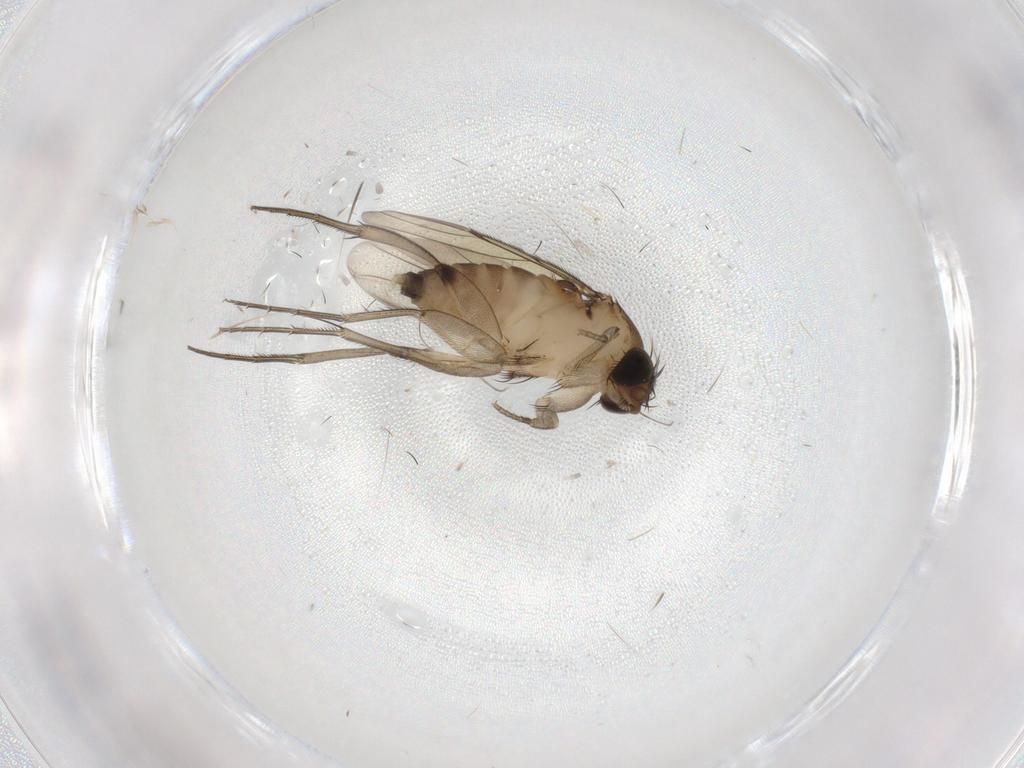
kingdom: Animalia
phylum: Arthropoda
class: Insecta
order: Diptera
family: Phoridae
